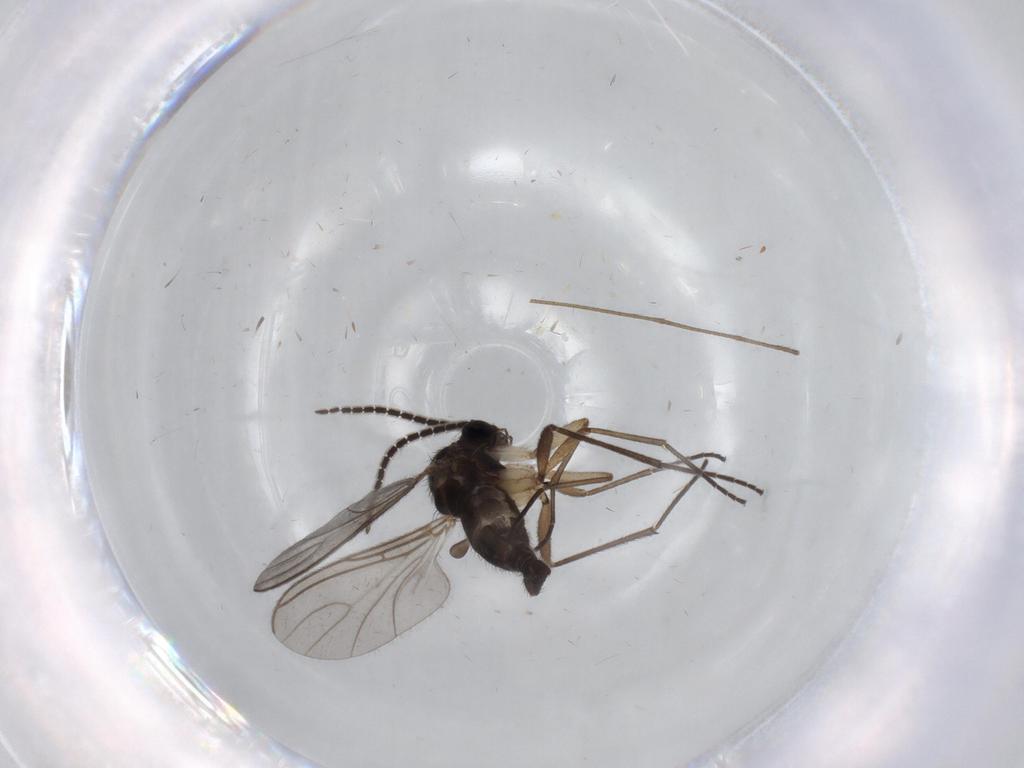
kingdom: Animalia
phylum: Arthropoda
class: Insecta
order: Diptera
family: Sciaridae
